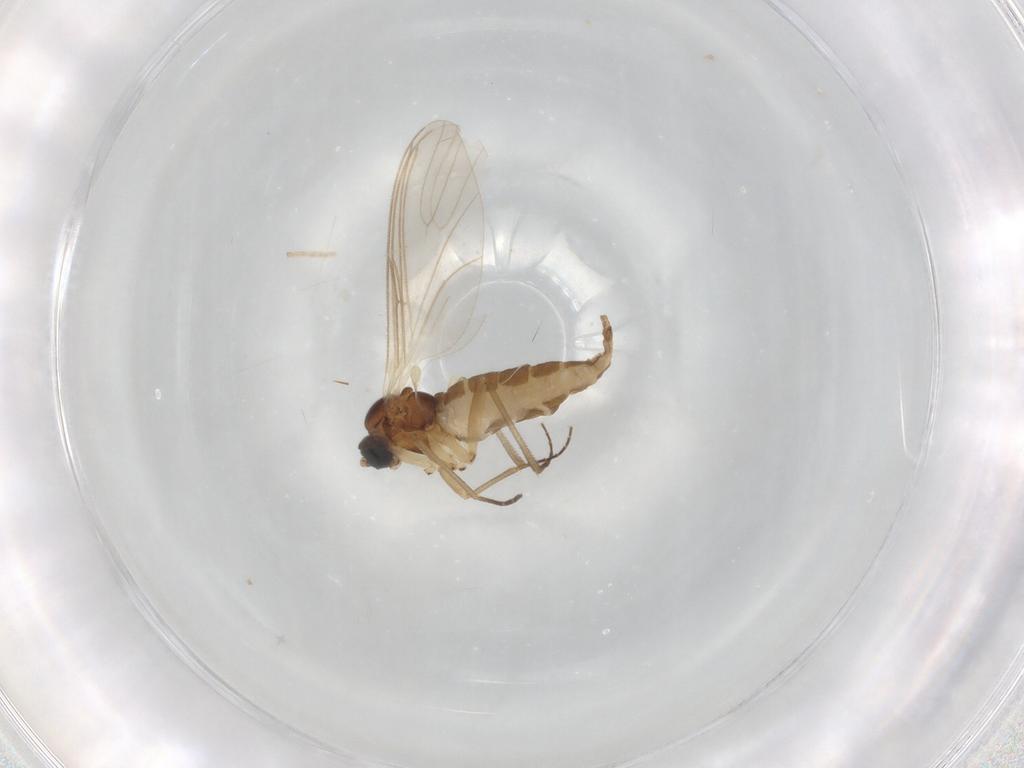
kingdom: Animalia
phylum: Arthropoda
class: Insecta
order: Diptera
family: Sciaridae
